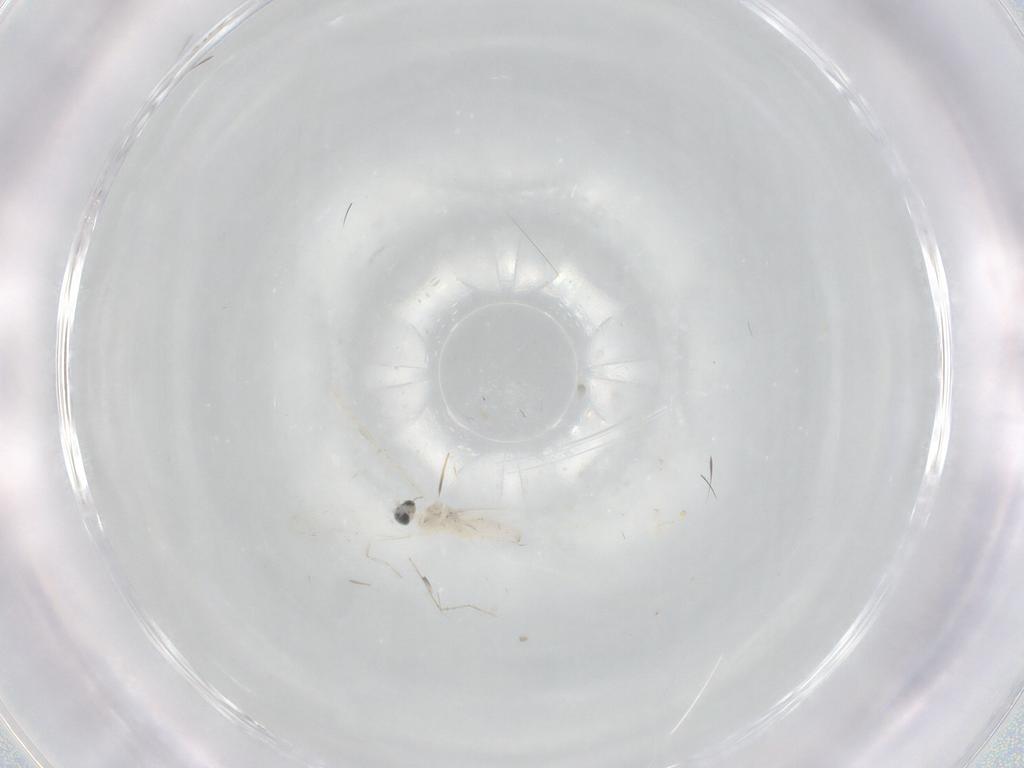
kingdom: Animalia
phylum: Arthropoda
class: Insecta
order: Diptera
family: Cecidomyiidae
